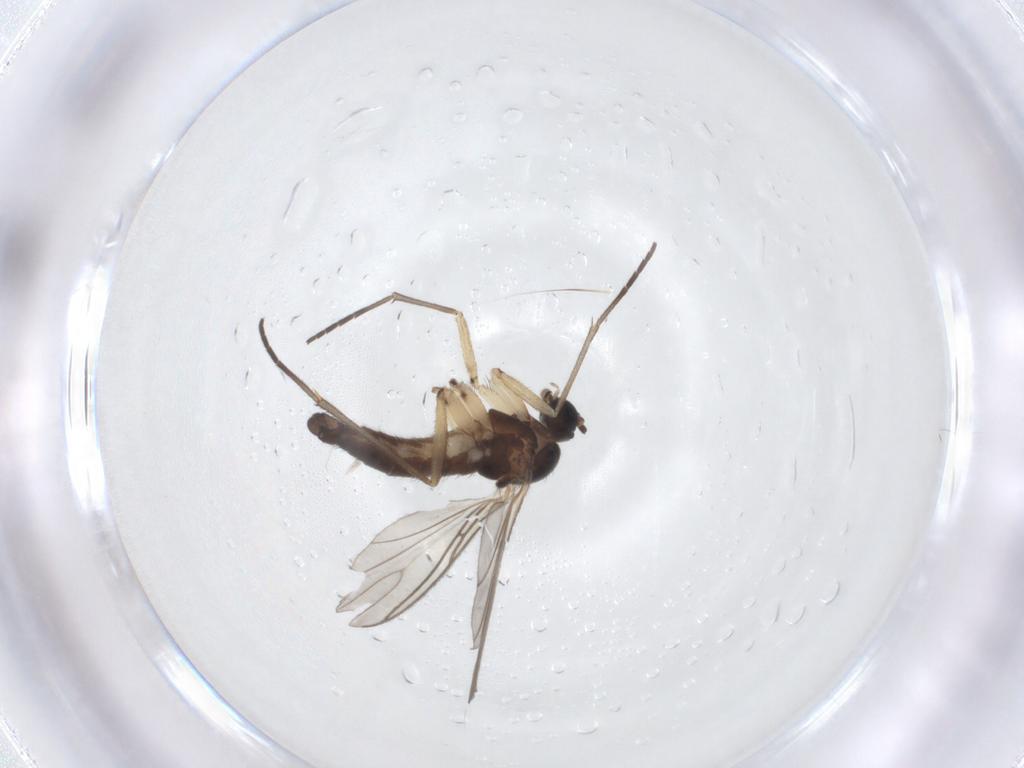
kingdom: Animalia
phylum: Arthropoda
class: Insecta
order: Diptera
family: Sciaridae
